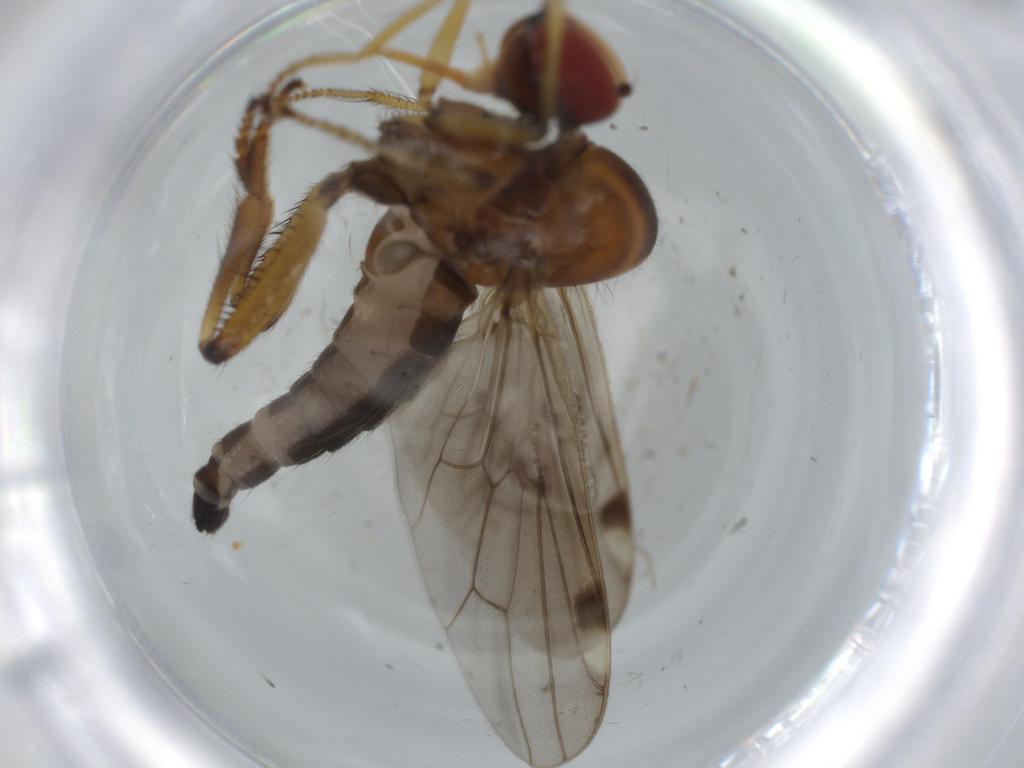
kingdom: Animalia
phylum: Arthropoda
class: Insecta
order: Diptera
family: Hybotidae
